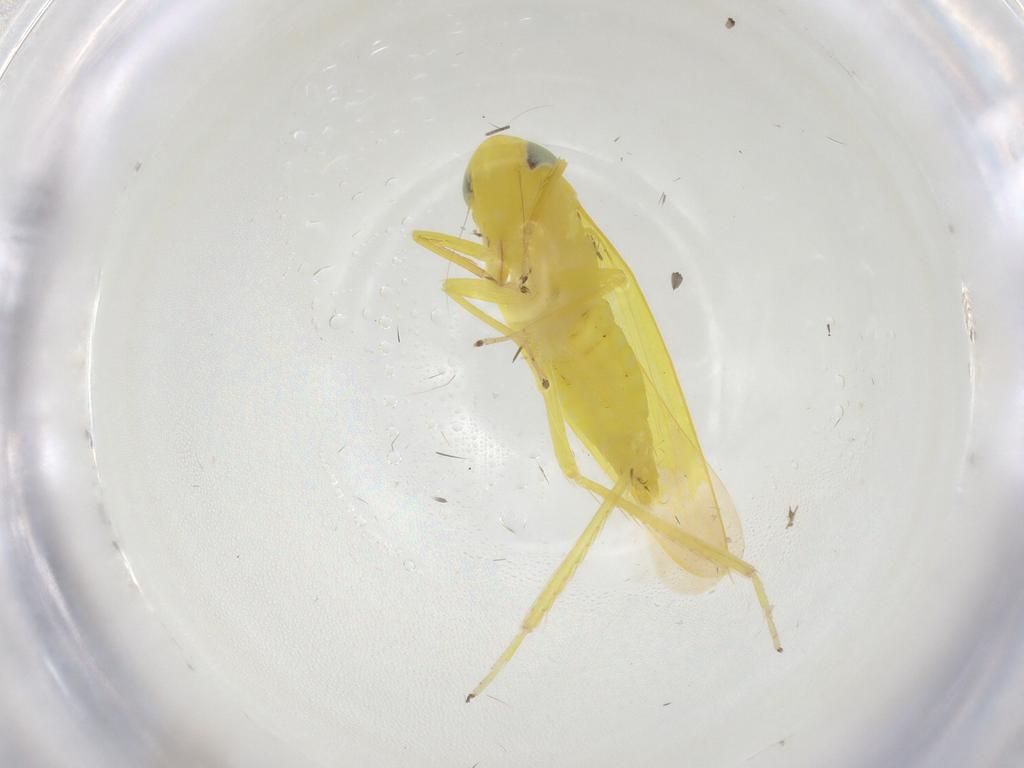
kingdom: Animalia
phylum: Arthropoda
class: Insecta
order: Hemiptera
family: Cicadellidae
